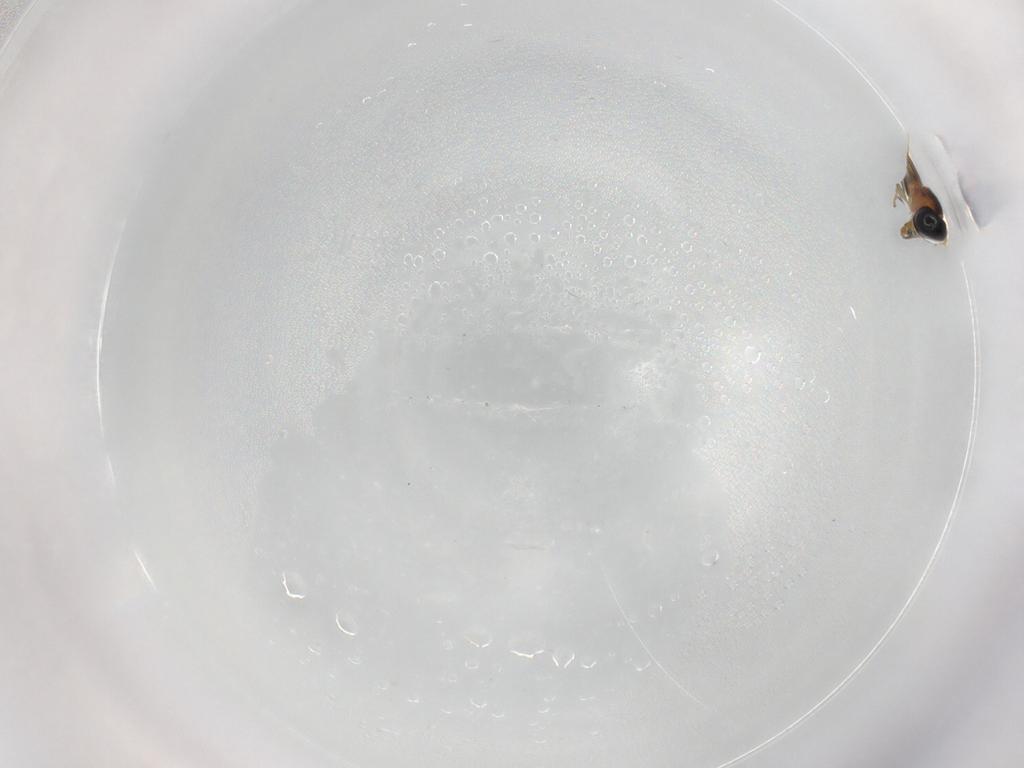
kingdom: Animalia
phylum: Arthropoda
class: Insecta
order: Hymenoptera
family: Scelionidae
